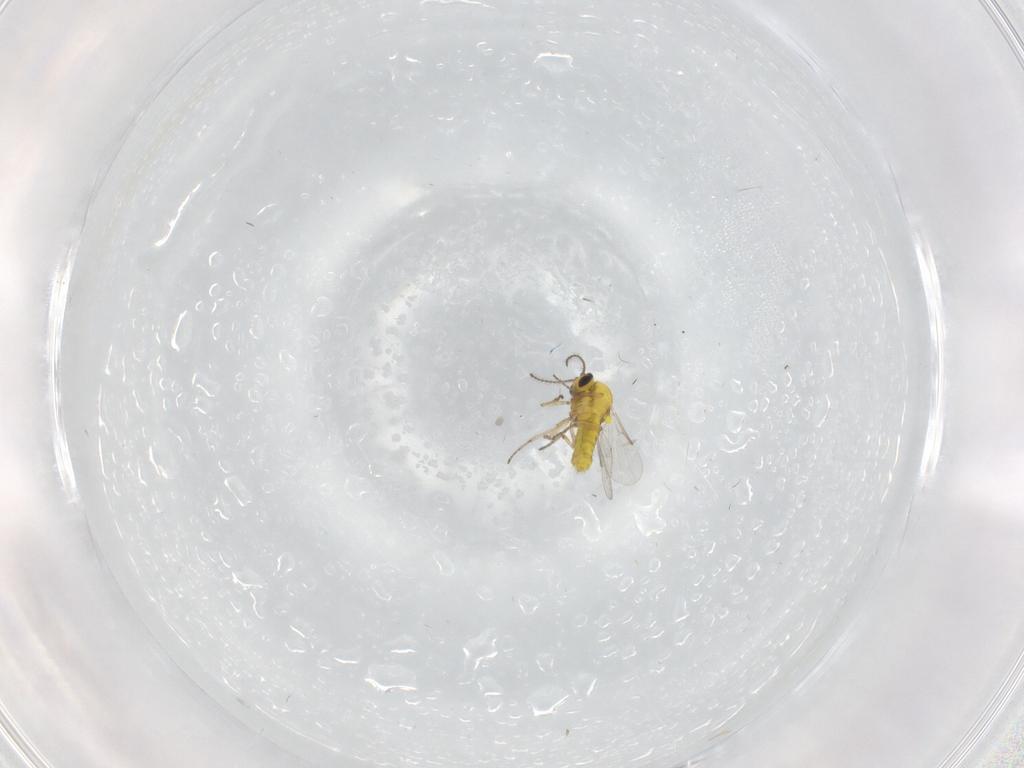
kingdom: Animalia
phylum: Arthropoda
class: Insecta
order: Diptera
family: Ceratopogonidae
